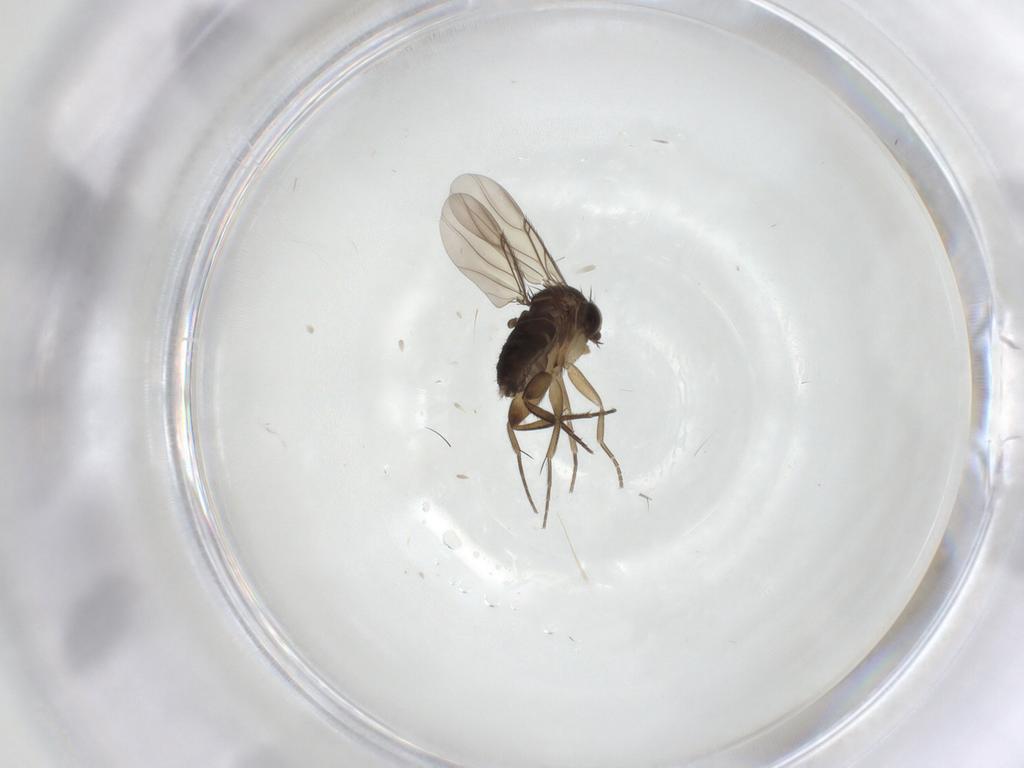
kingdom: Animalia
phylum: Arthropoda
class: Insecta
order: Diptera
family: Phoridae
